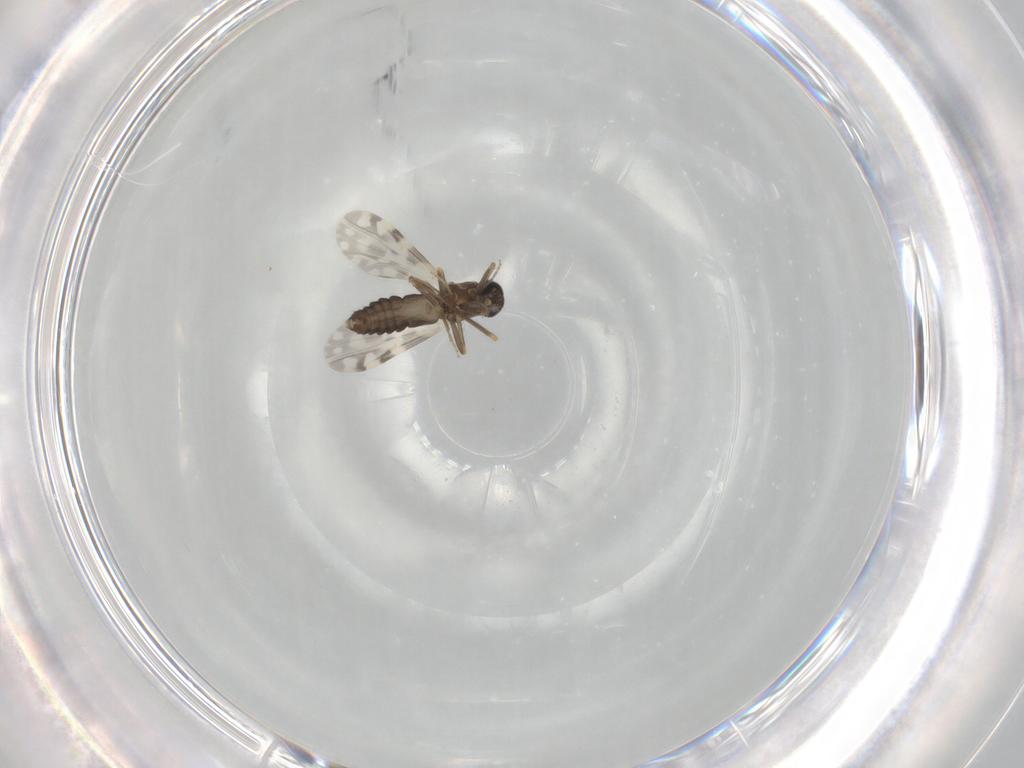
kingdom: Animalia
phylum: Arthropoda
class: Insecta
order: Diptera
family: Ceratopogonidae
